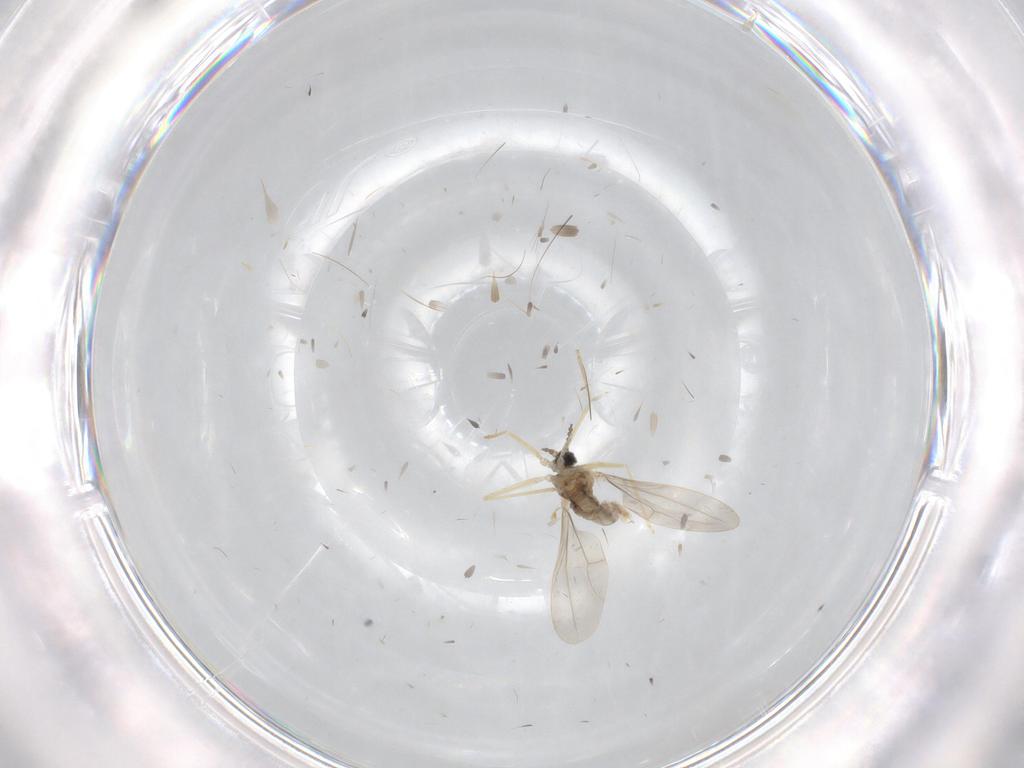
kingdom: Animalia
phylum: Arthropoda
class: Insecta
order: Diptera
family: Cecidomyiidae
